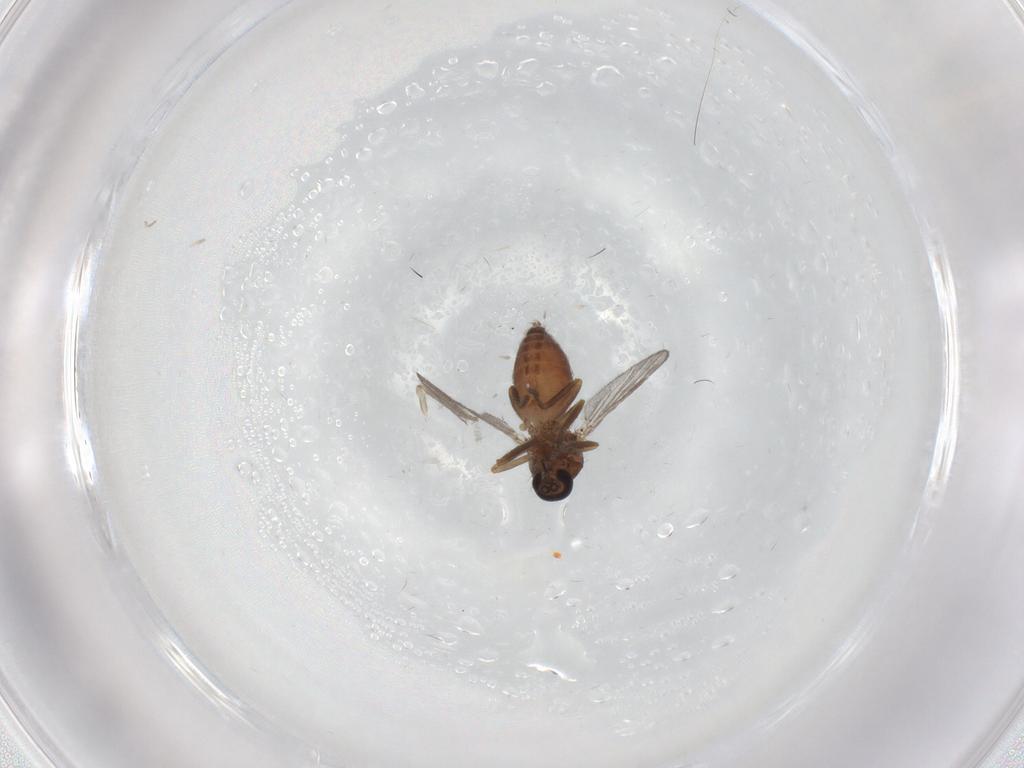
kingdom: Animalia
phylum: Arthropoda
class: Insecta
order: Diptera
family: Ceratopogonidae
